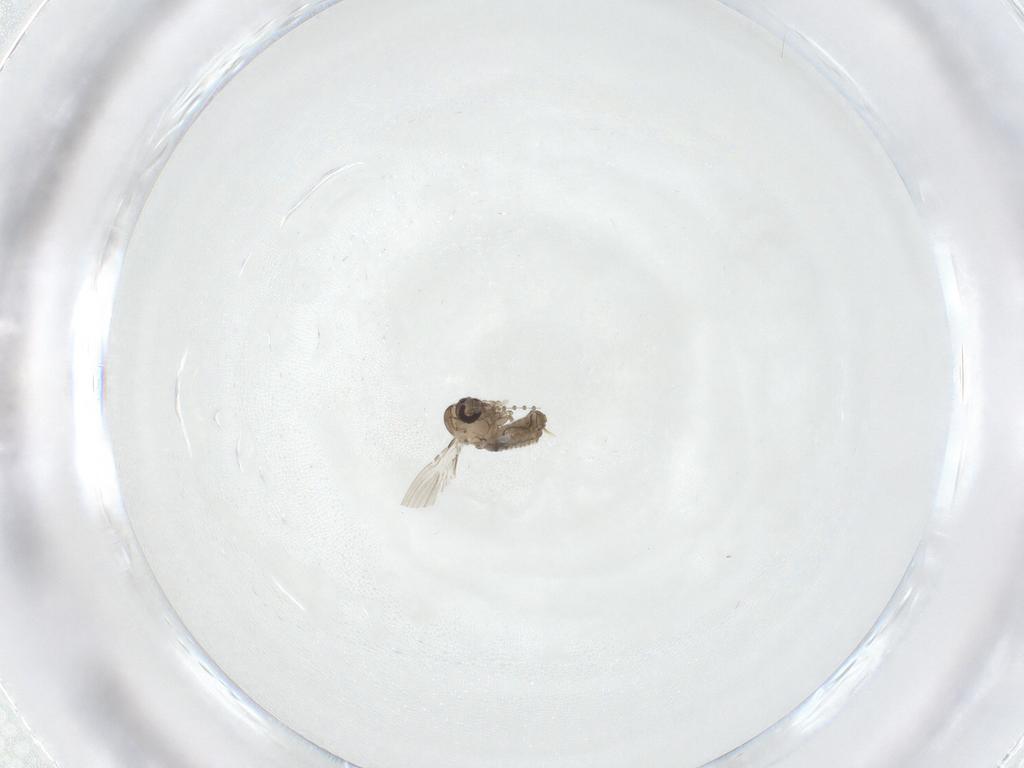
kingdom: Animalia
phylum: Arthropoda
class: Insecta
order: Diptera
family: Psychodidae
